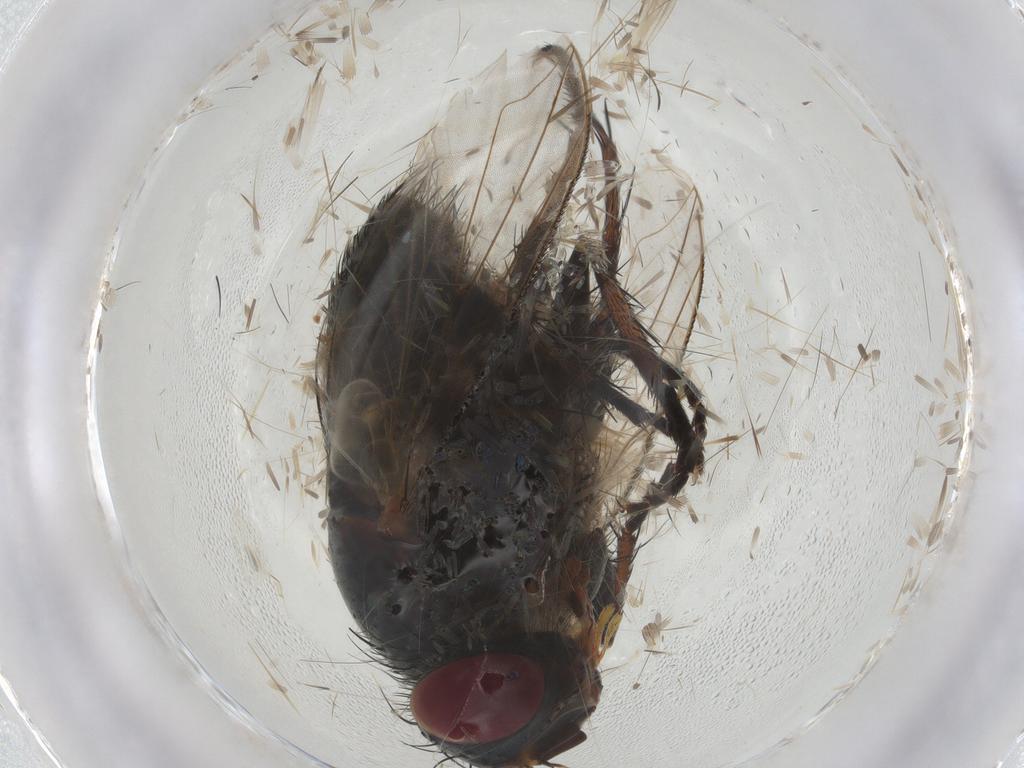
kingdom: Animalia
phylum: Arthropoda
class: Insecta
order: Diptera
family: Tachinidae
